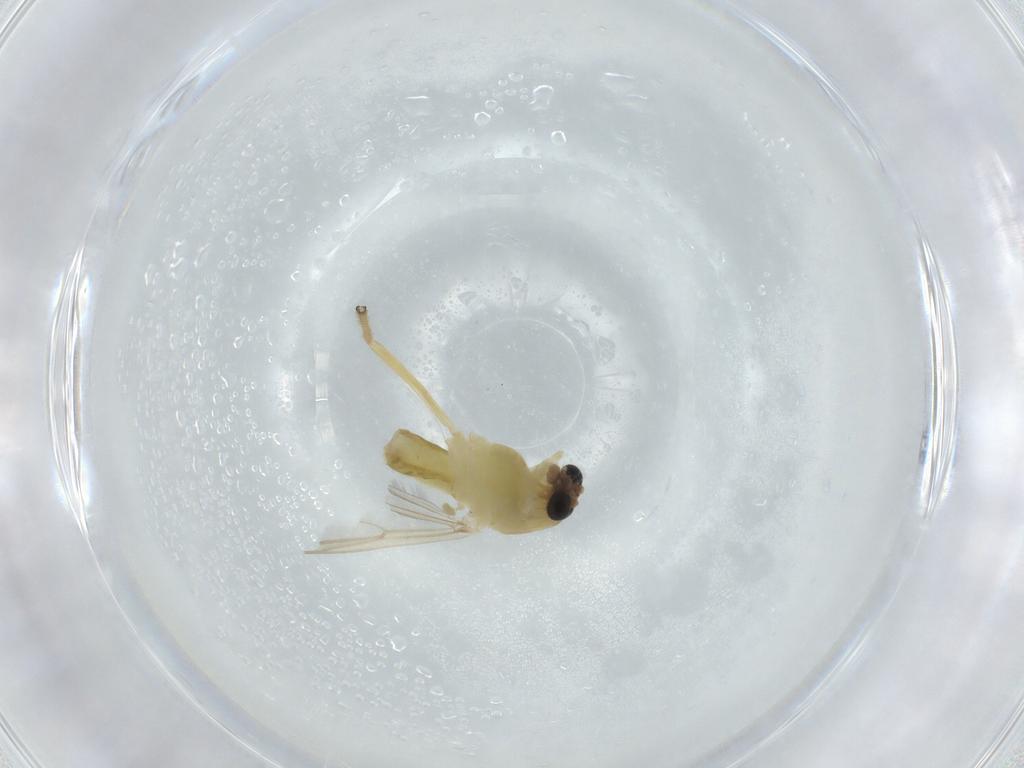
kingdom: Animalia
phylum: Arthropoda
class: Insecta
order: Diptera
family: Chironomidae
